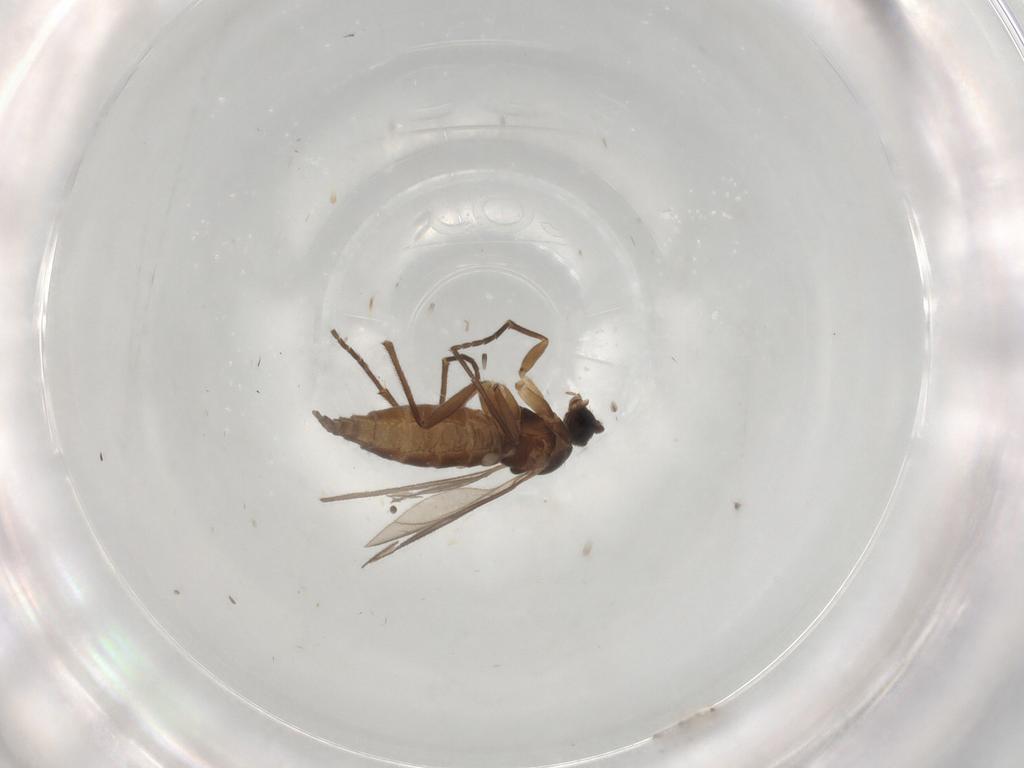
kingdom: Animalia
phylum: Arthropoda
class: Insecta
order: Diptera
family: Sciaridae
